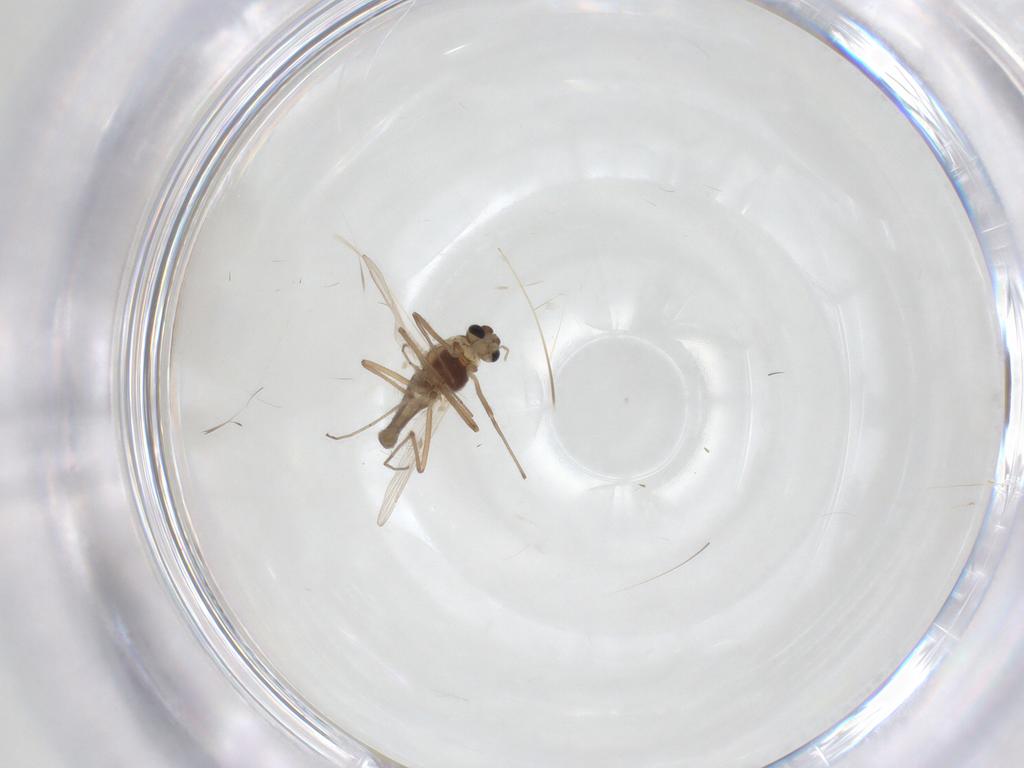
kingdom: Animalia
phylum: Arthropoda
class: Insecta
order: Diptera
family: Chironomidae
